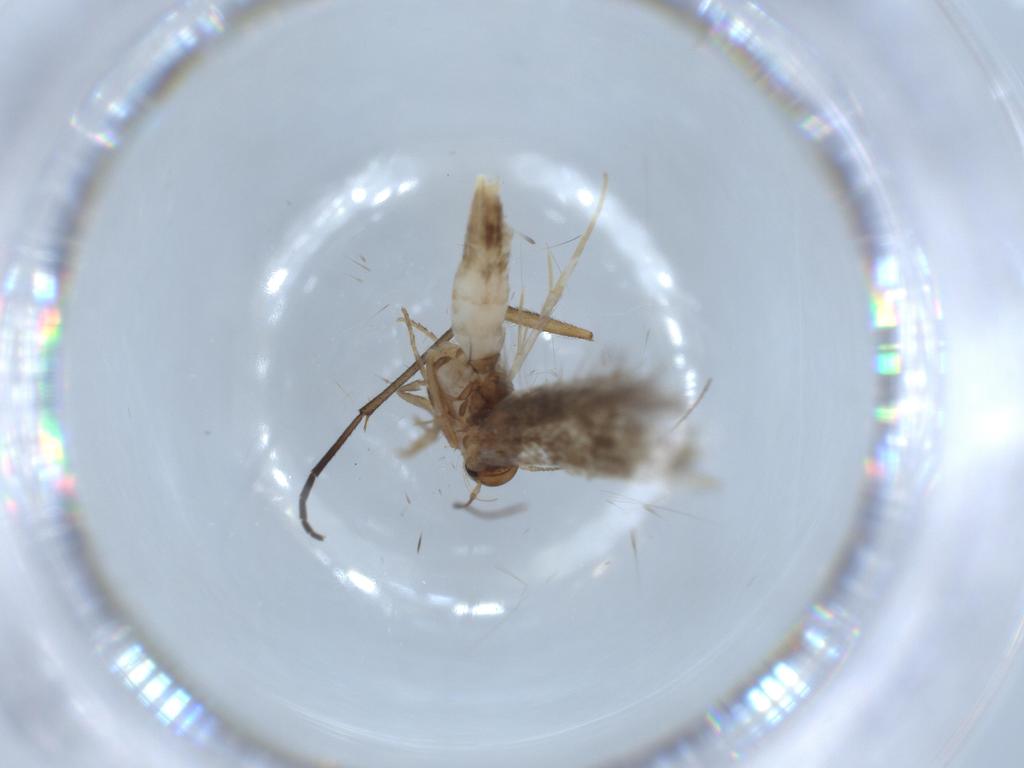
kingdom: Animalia
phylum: Arthropoda
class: Insecta
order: Lepidoptera
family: Elachistidae
